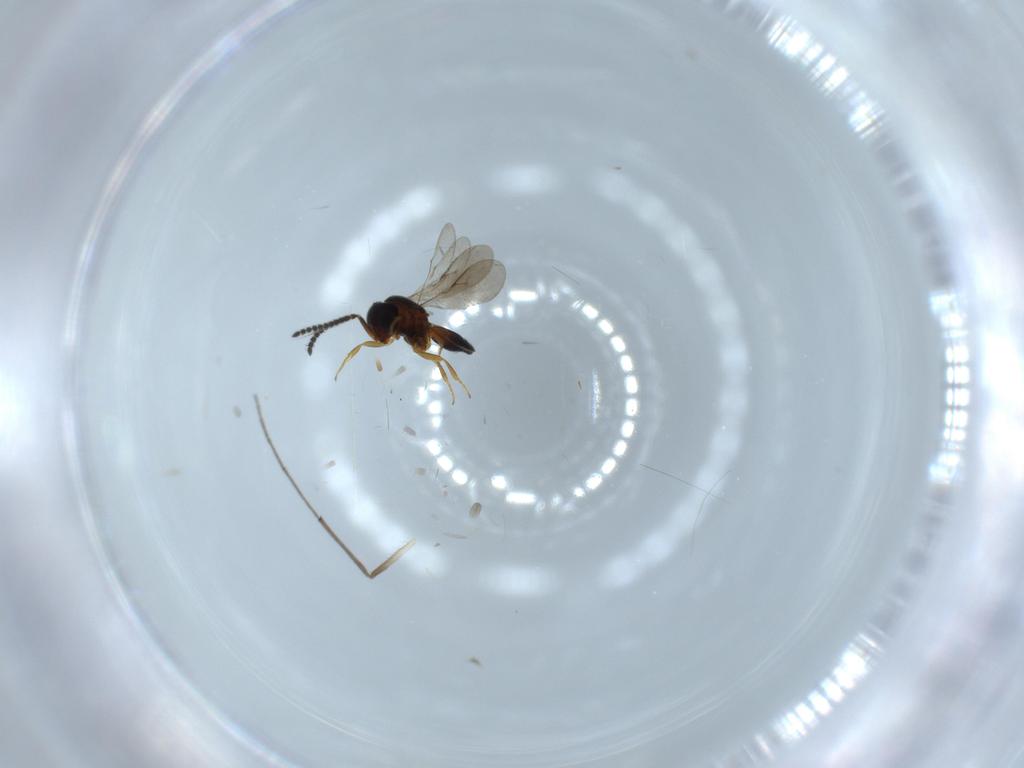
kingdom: Animalia
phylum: Arthropoda
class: Insecta
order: Hymenoptera
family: Scelionidae
